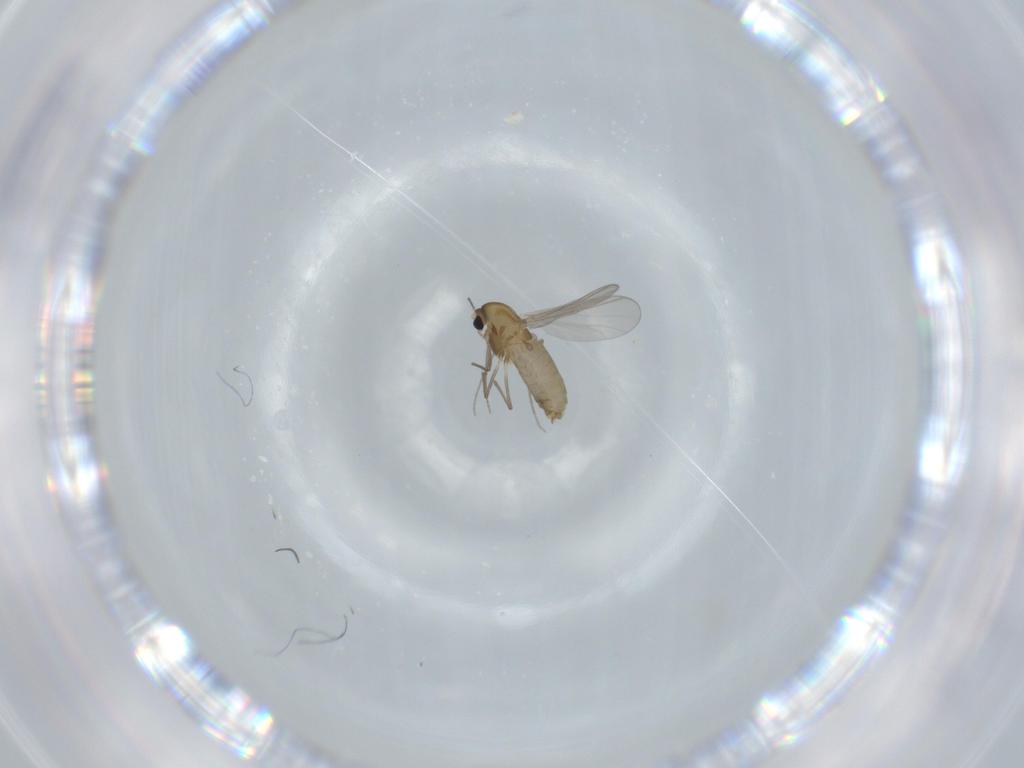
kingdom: Animalia
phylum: Arthropoda
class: Insecta
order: Diptera
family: Chironomidae
